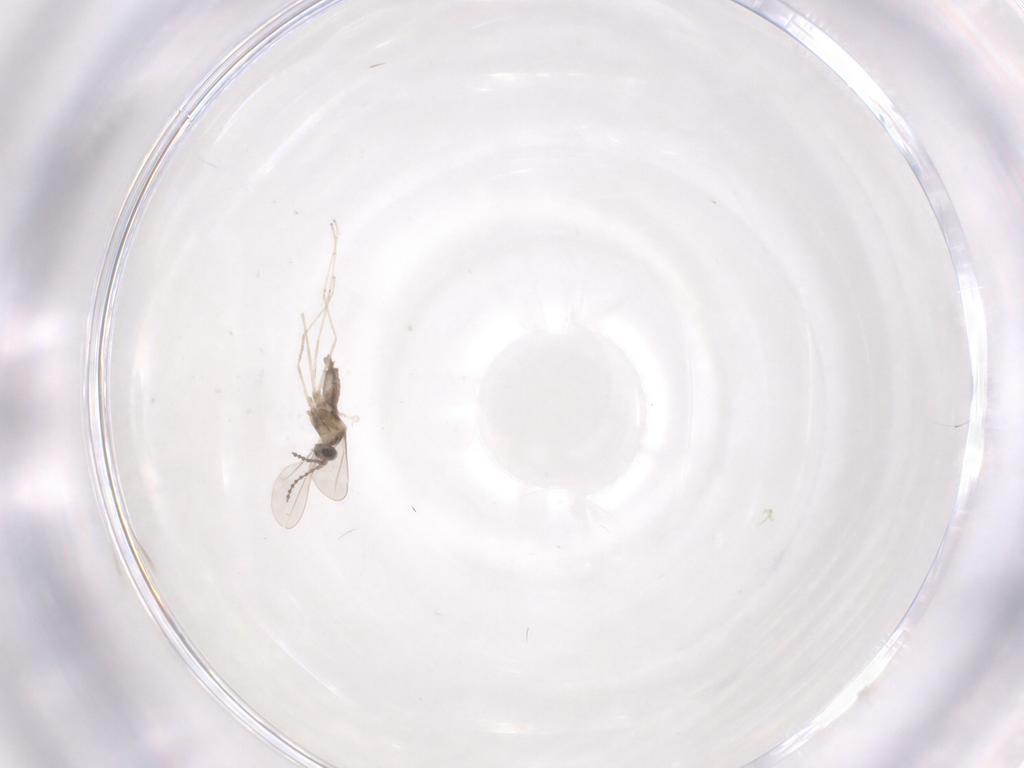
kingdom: Animalia
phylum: Arthropoda
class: Insecta
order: Diptera
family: Cecidomyiidae
